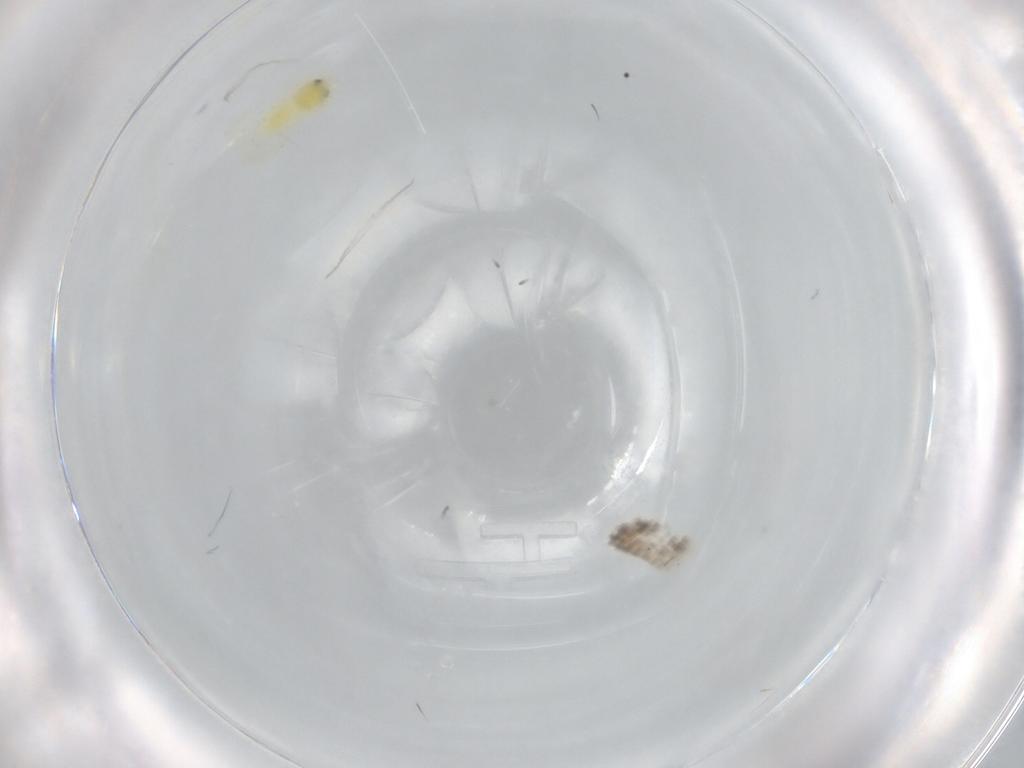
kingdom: Animalia
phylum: Arthropoda
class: Insecta
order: Hemiptera
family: Aleyrodidae
